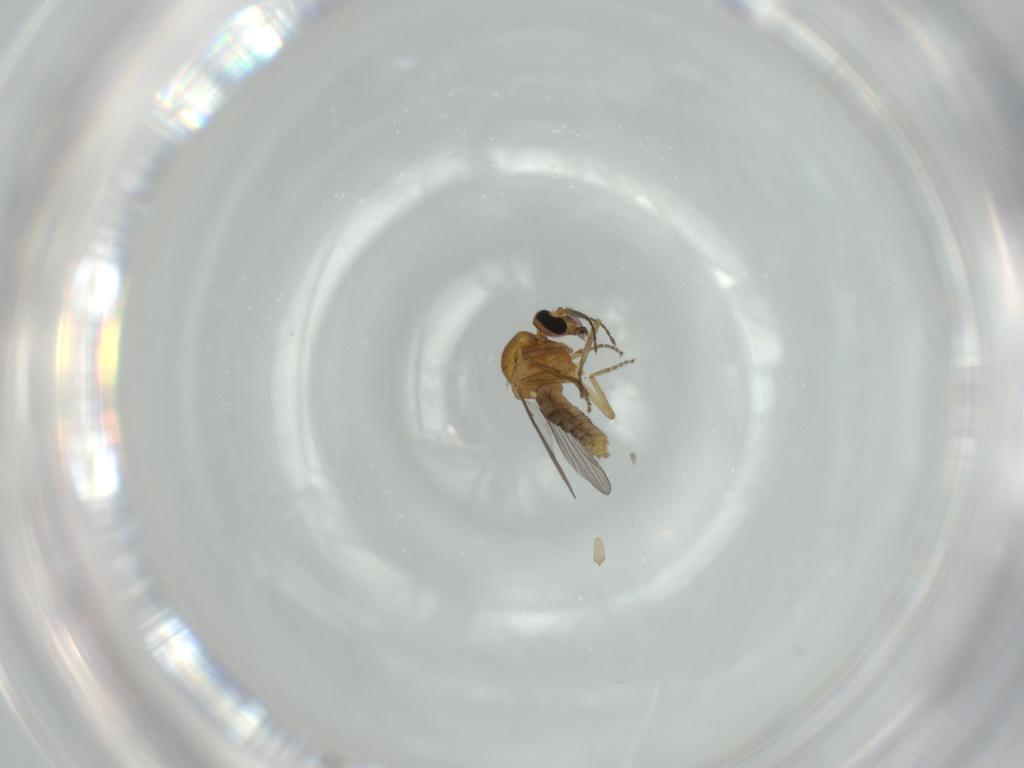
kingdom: Animalia
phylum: Arthropoda
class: Insecta
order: Diptera
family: Ceratopogonidae
